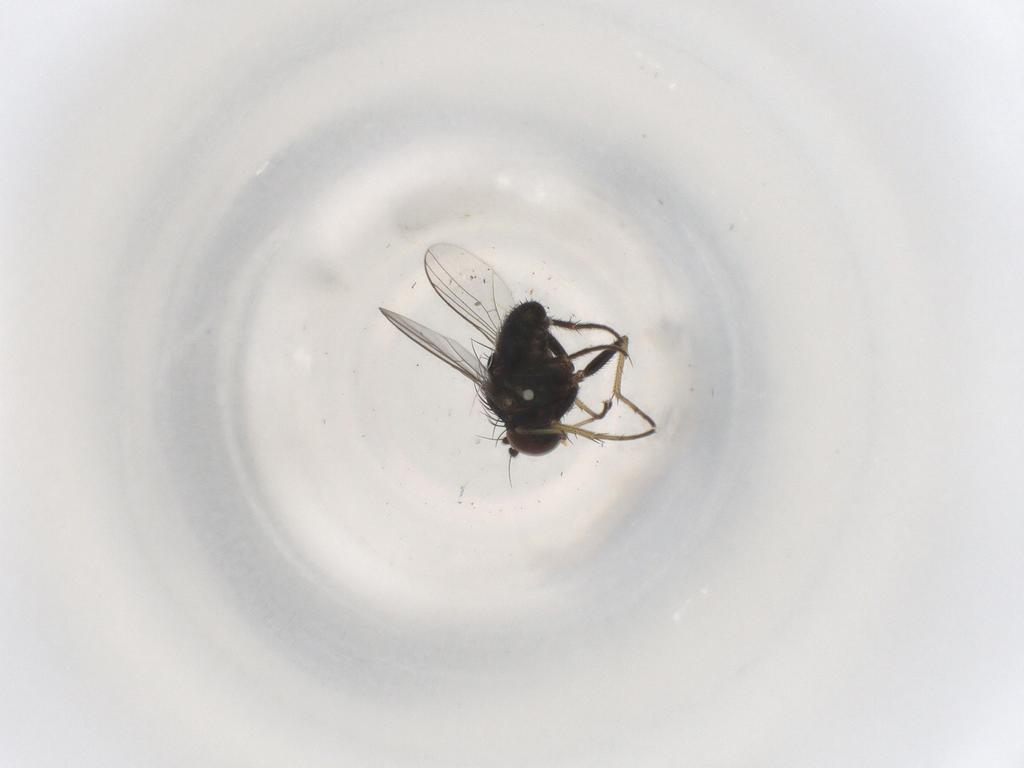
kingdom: Animalia
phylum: Arthropoda
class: Insecta
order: Diptera
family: Dolichopodidae
